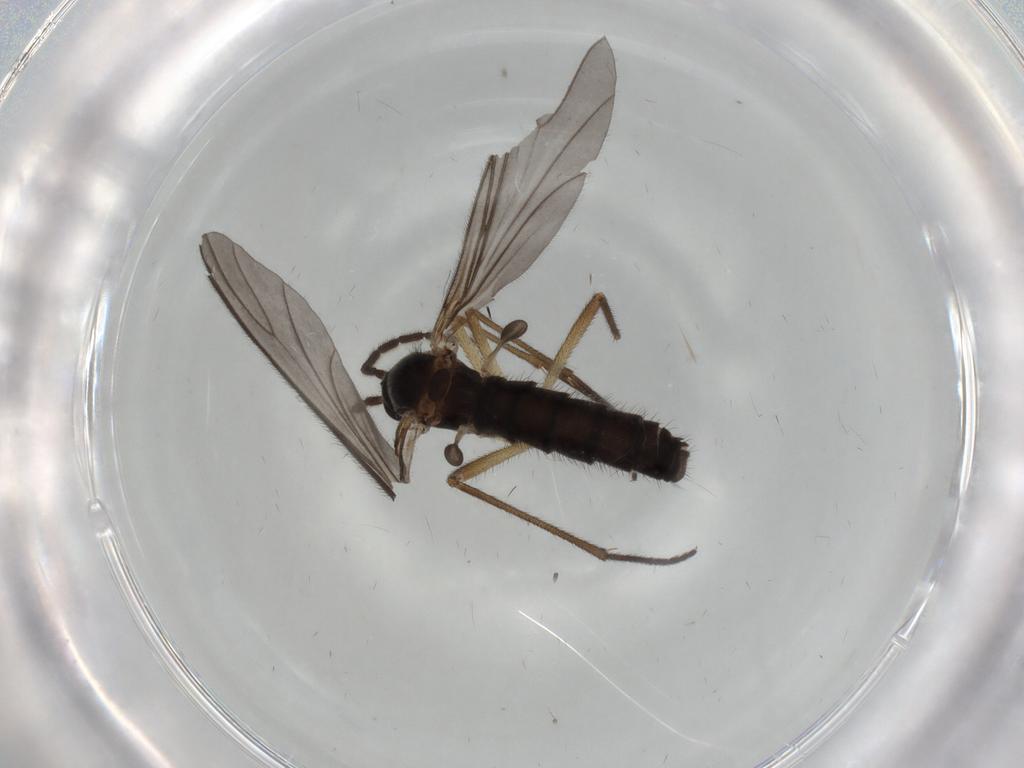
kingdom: Animalia
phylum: Arthropoda
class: Insecta
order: Diptera
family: Sciaridae
